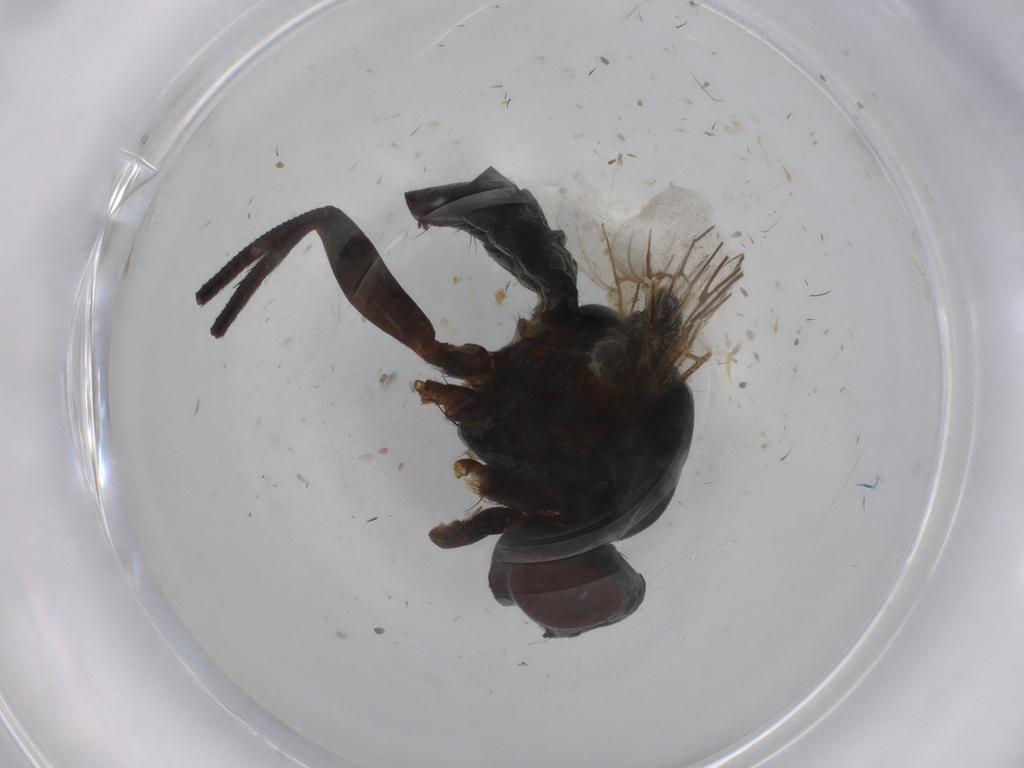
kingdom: Animalia
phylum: Arthropoda
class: Insecta
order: Diptera
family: Anthomyiidae
